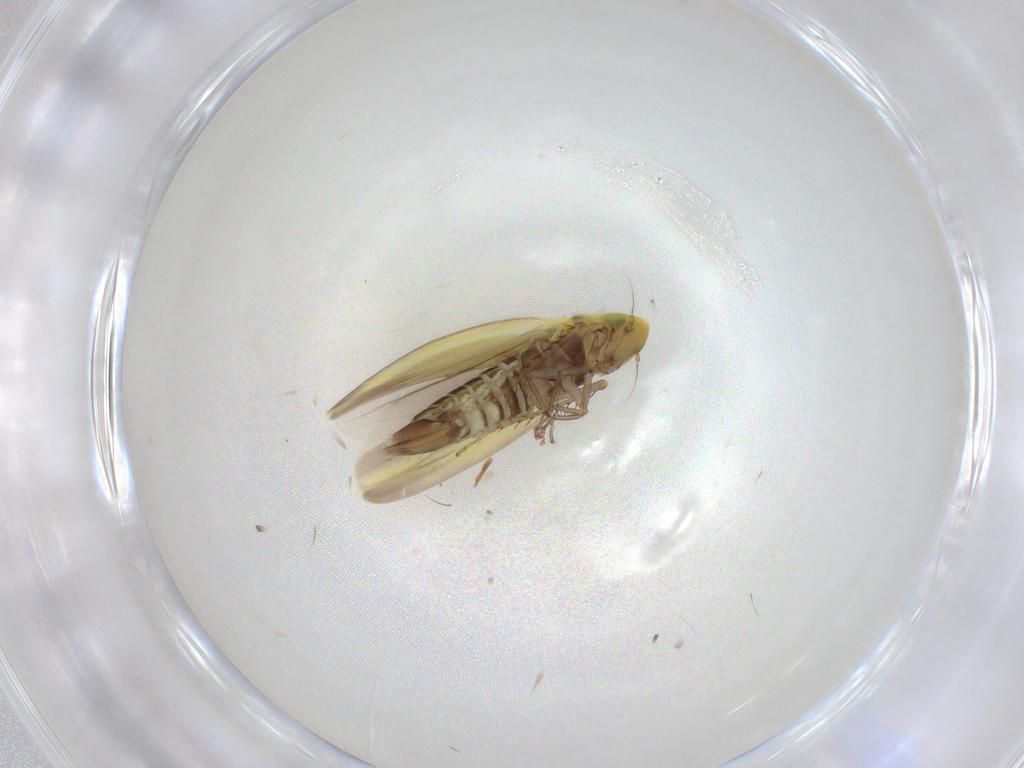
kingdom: Animalia
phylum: Arthropoda
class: Insecta
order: Hemiptera
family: Cicadellidae
